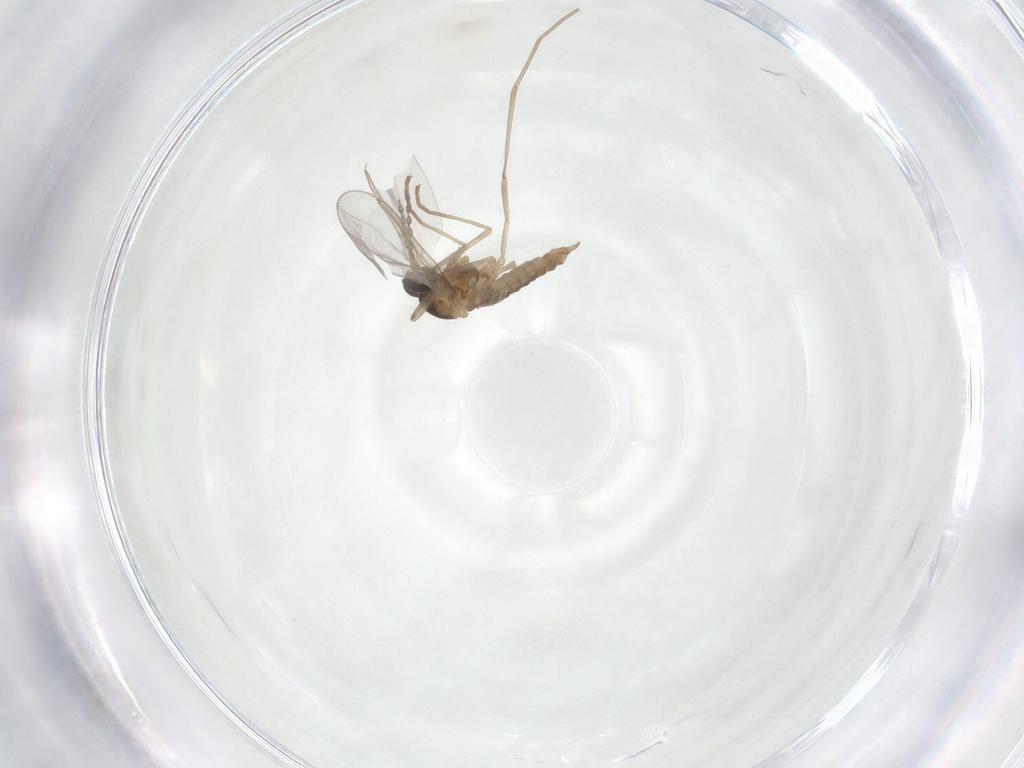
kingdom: Animalia
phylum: Arthropoda
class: Insecta
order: Diptera
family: Cecidomyiidae
